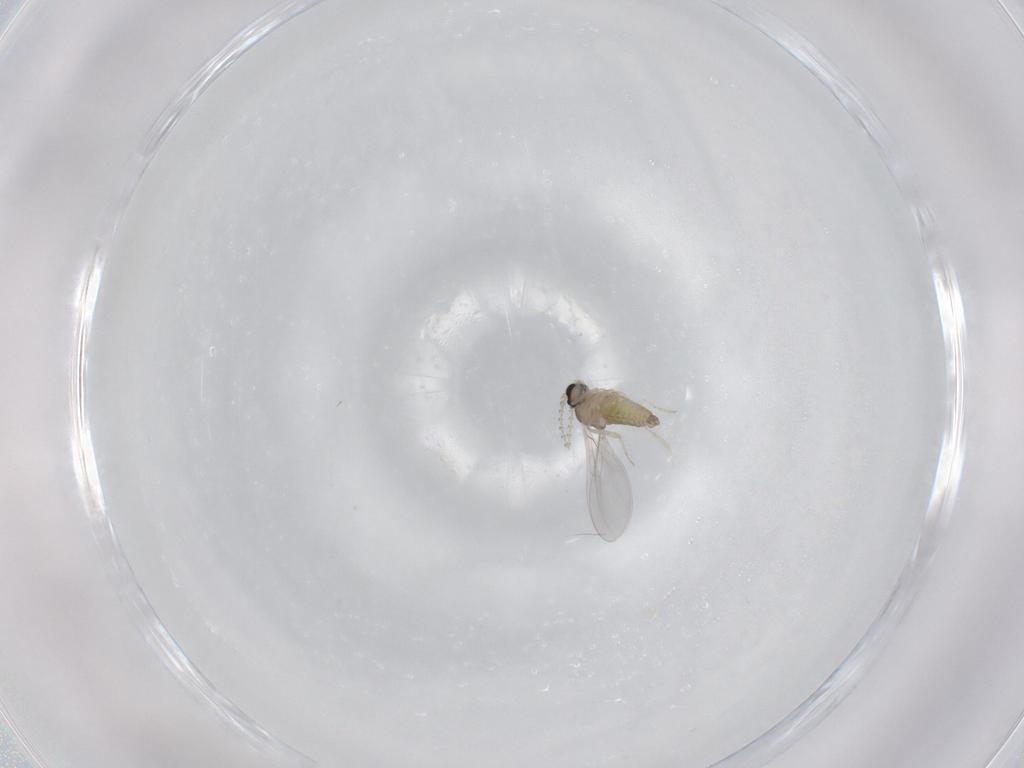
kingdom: Animalia
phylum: Arthropoda
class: Insecta
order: Diptera
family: Cecidomyiidae
